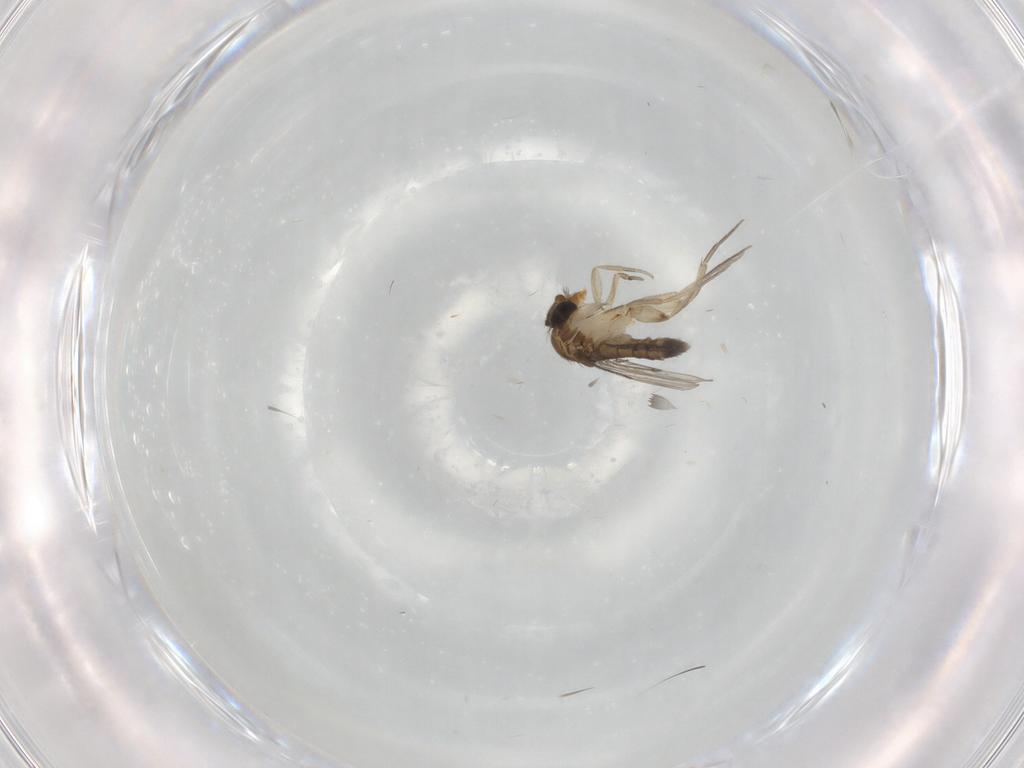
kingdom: Animalia
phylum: Arthropoda
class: Insecta
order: Diptera
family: Phoridae
